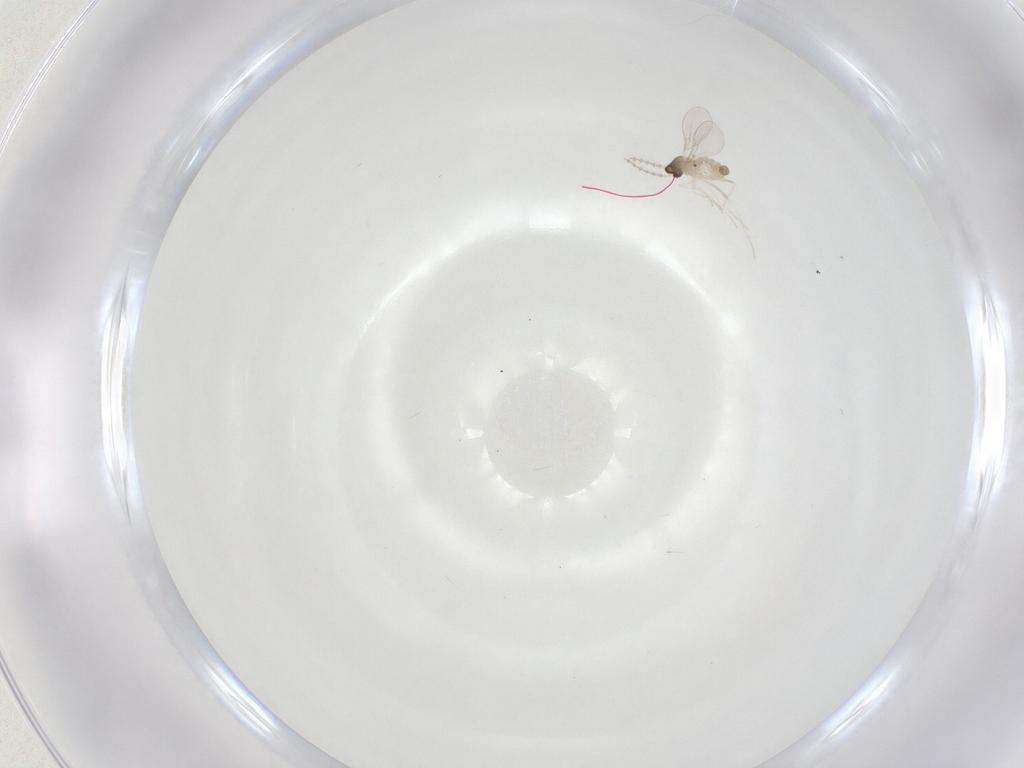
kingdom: Animalia
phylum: Arthropoda
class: Insecta
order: Diptera
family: Cecidomyiidae
